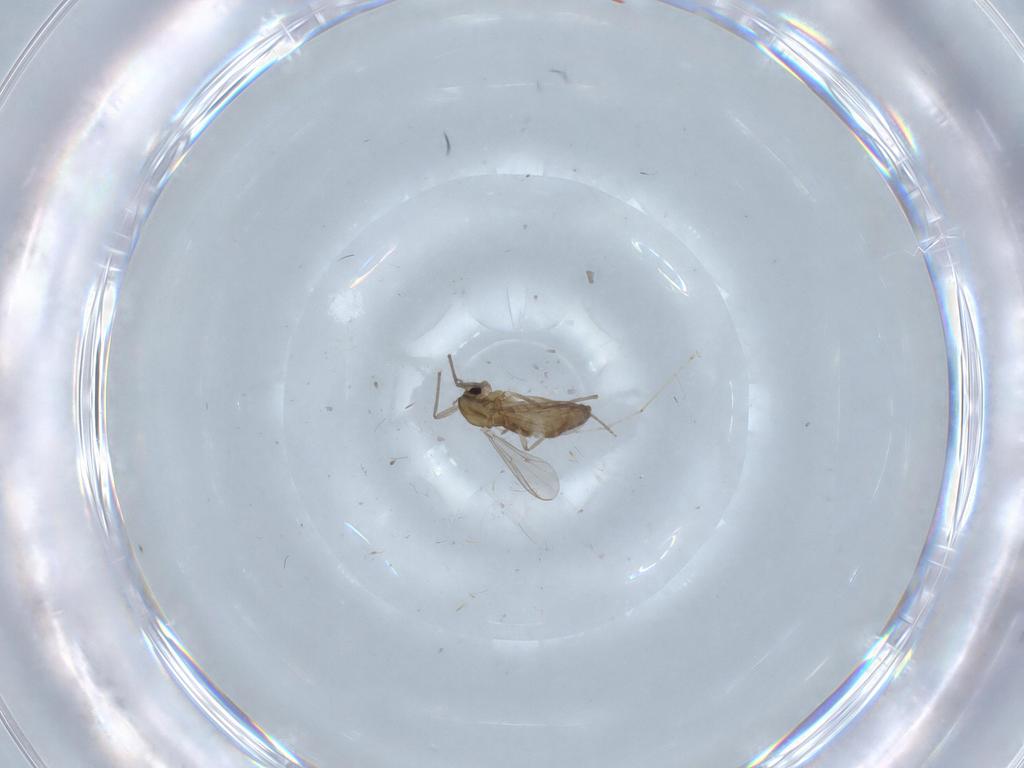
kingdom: Animalia
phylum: Arthropoda
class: Insecta
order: Diptera
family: Chironomidae
